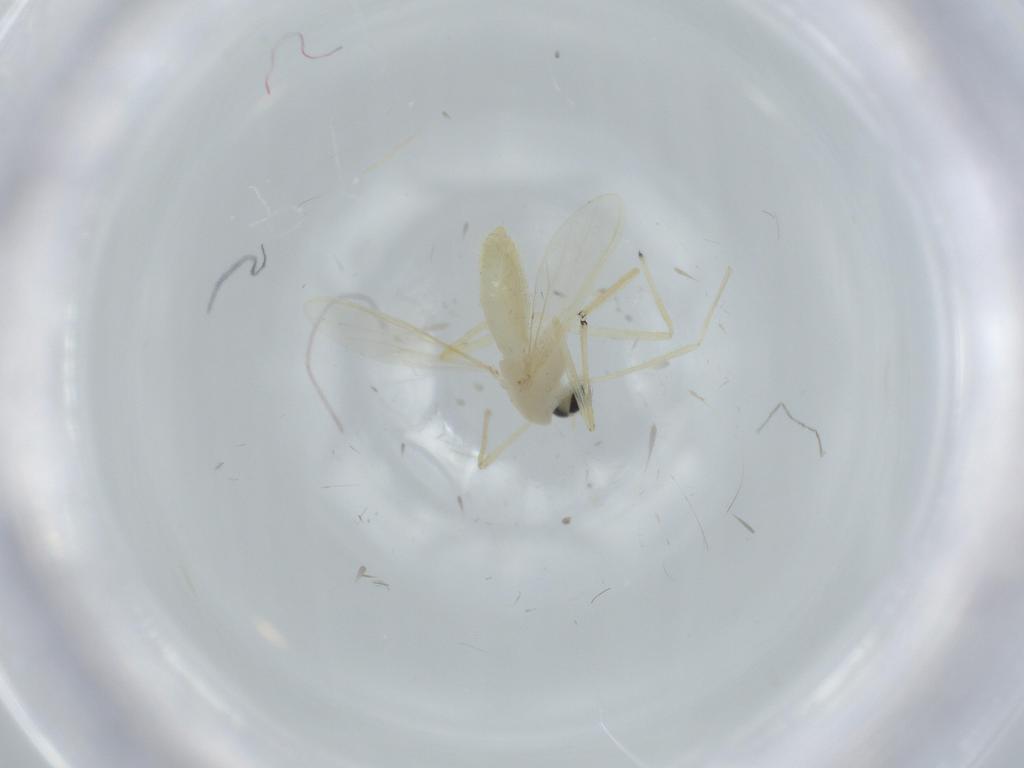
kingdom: Animalia
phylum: Arthropoda
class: Insecta
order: Diptera
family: Chironomidae
